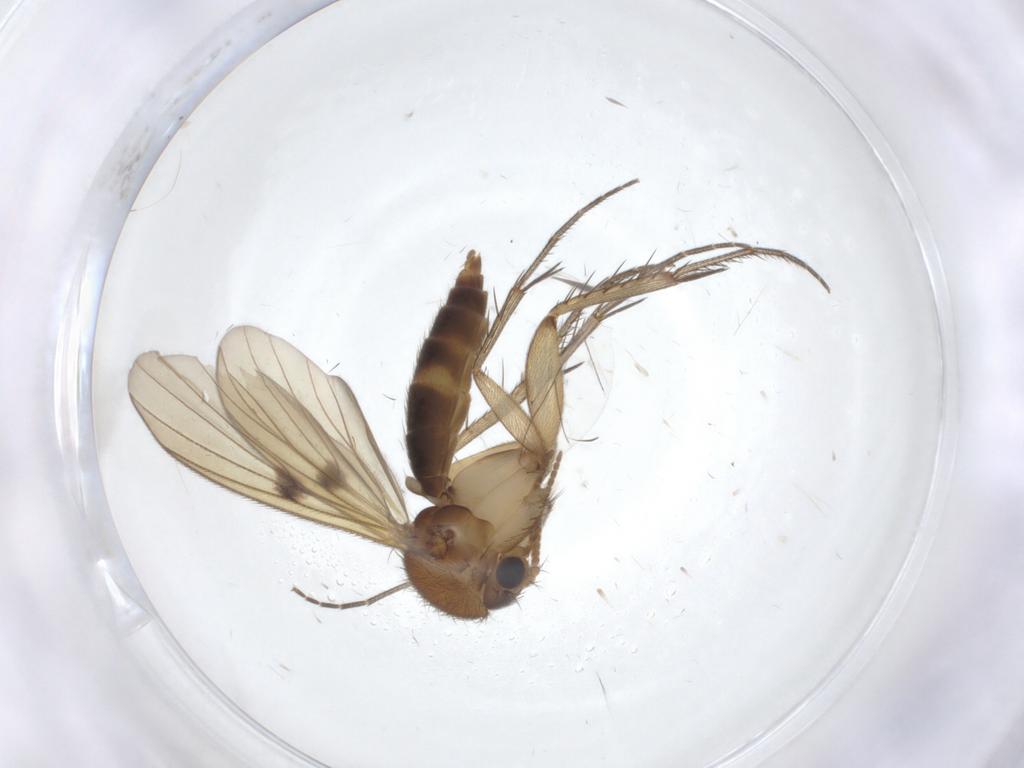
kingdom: Animalia
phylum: Arthropoda
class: Insecta
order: Diptera
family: Mycetophilidae
